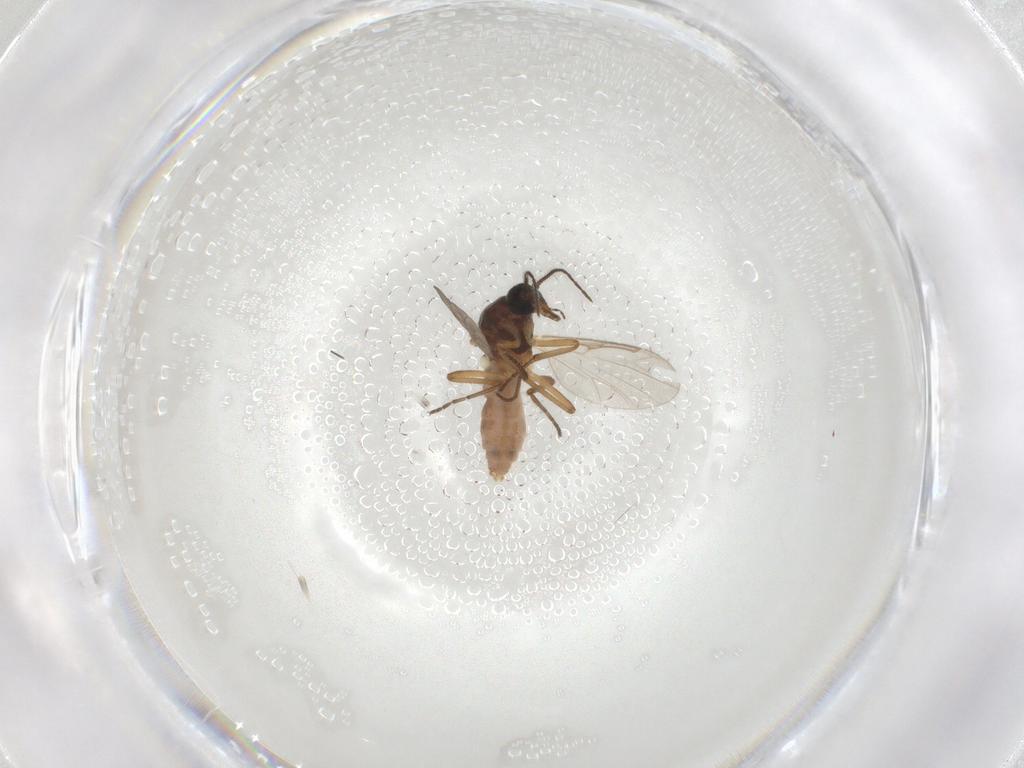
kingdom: Animalia
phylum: Arthropoda
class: Insecta
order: Diptera
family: Ceratopogonidae
